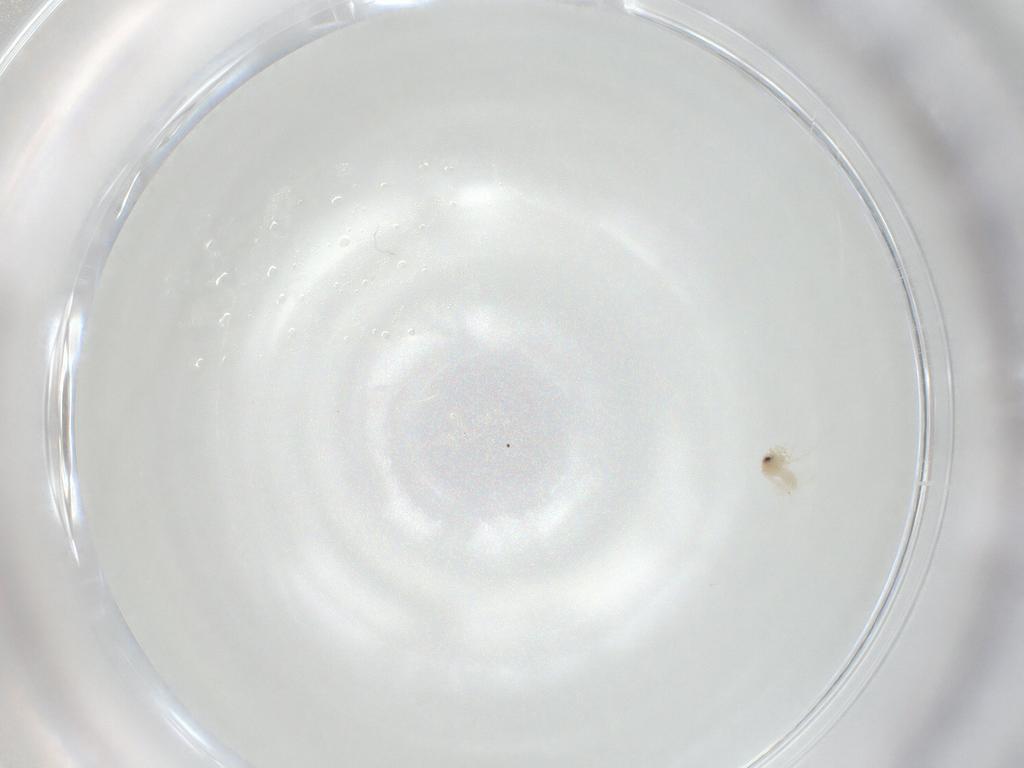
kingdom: Animalia
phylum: Arthropoda
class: Insecta
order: Hemiptera
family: Aleyrodidae
